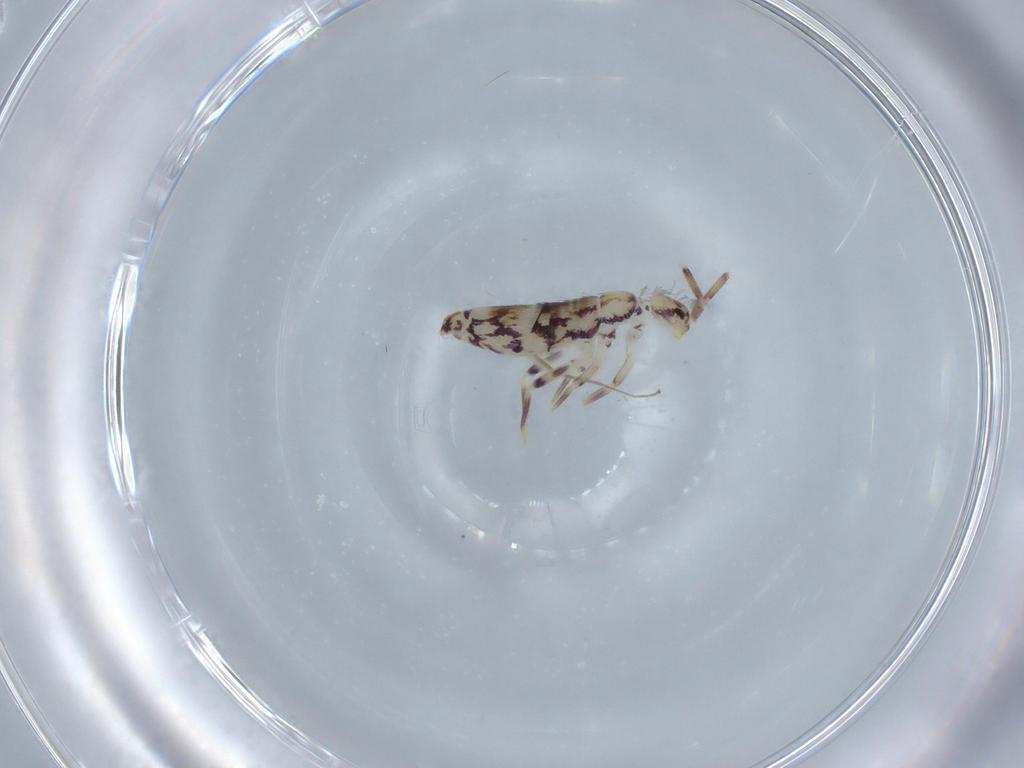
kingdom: Animalia
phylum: Arthropoda
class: Collembola
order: Entomobryomorpha
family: Entomobryidae
